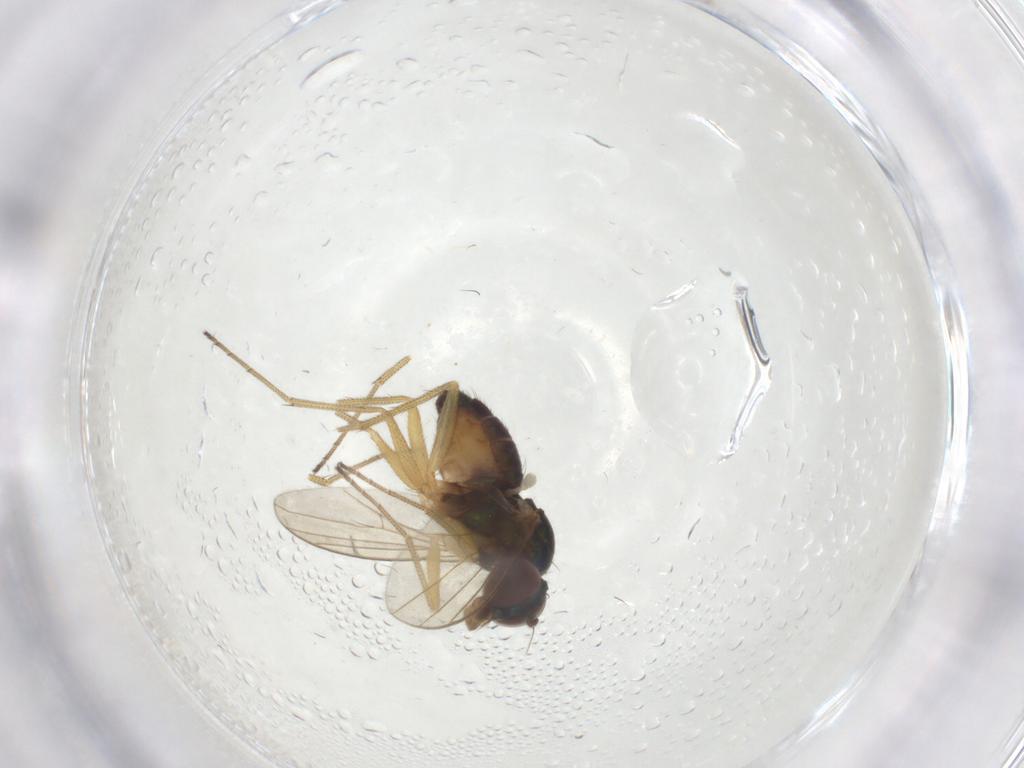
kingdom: Animalia
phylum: Arthropoda
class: Insecta
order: Diptera
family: Dolichopodidae
